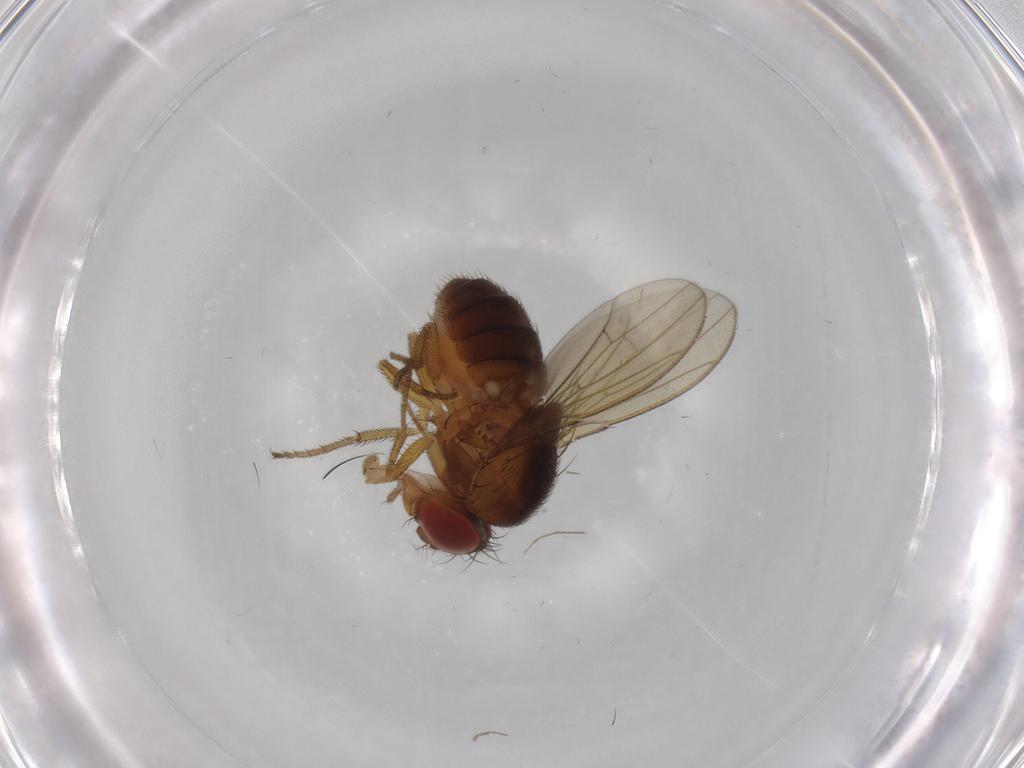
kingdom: Animalia
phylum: Arthropoda
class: Insecta
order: Diptera
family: Drosophilidae
